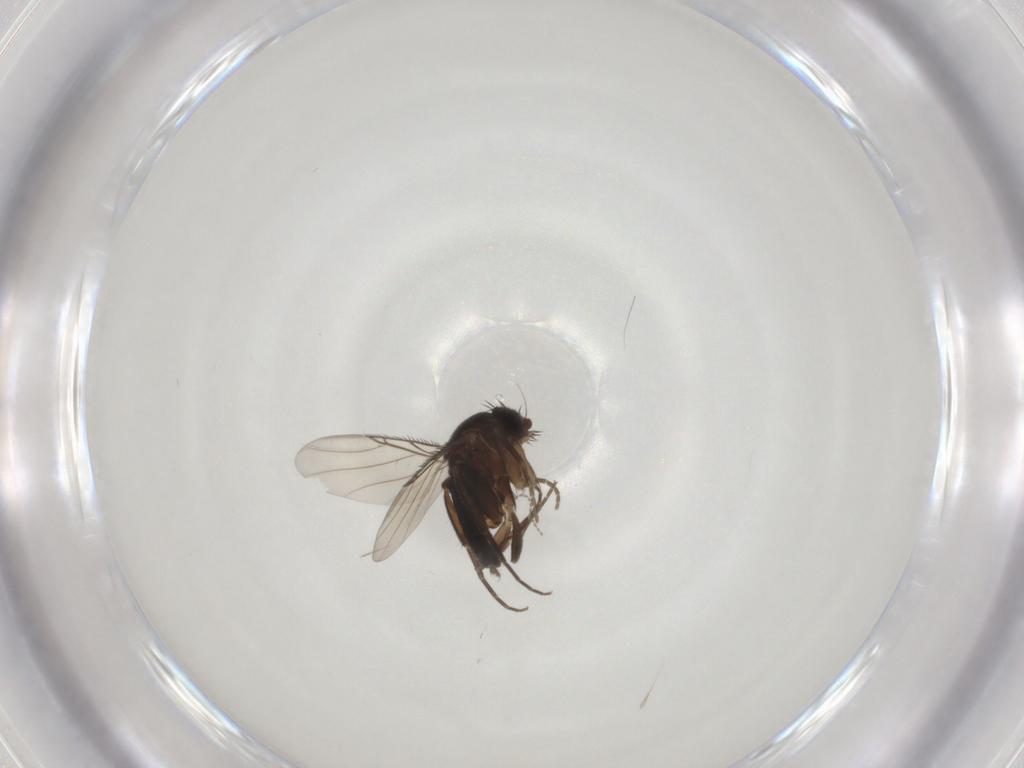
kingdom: Animalia
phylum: Arthropoda
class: Insecta
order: Diptera
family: Phoridae
